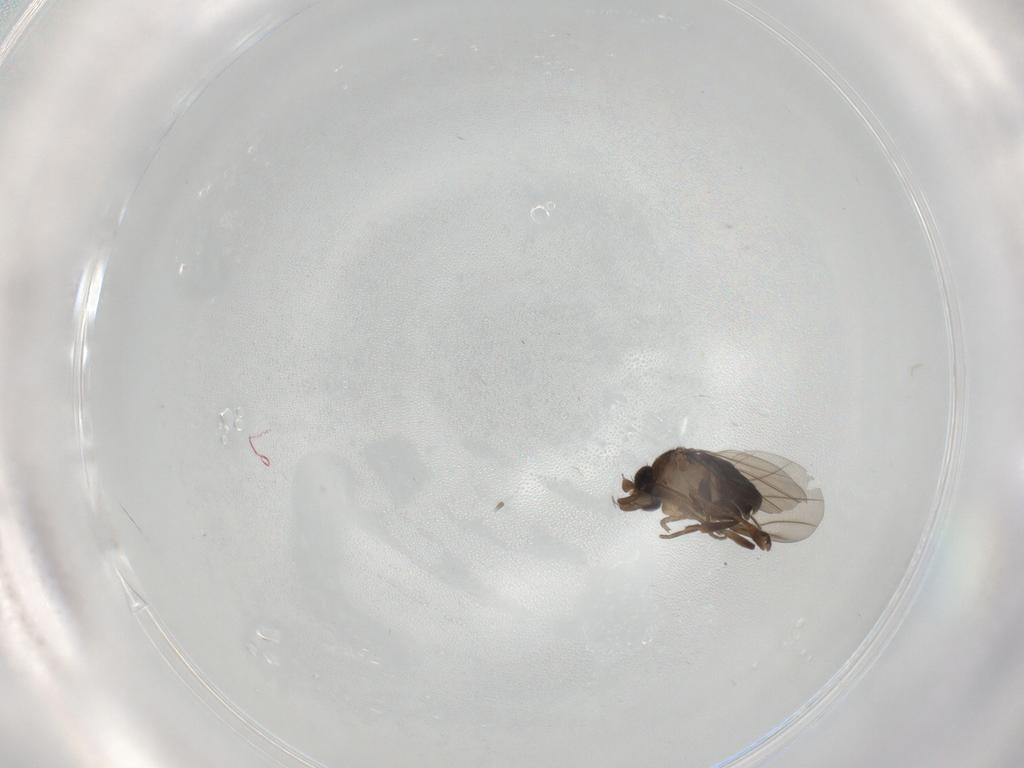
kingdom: Animalia
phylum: Arthropoda
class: Insecta
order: Diptera
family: Phoridae
